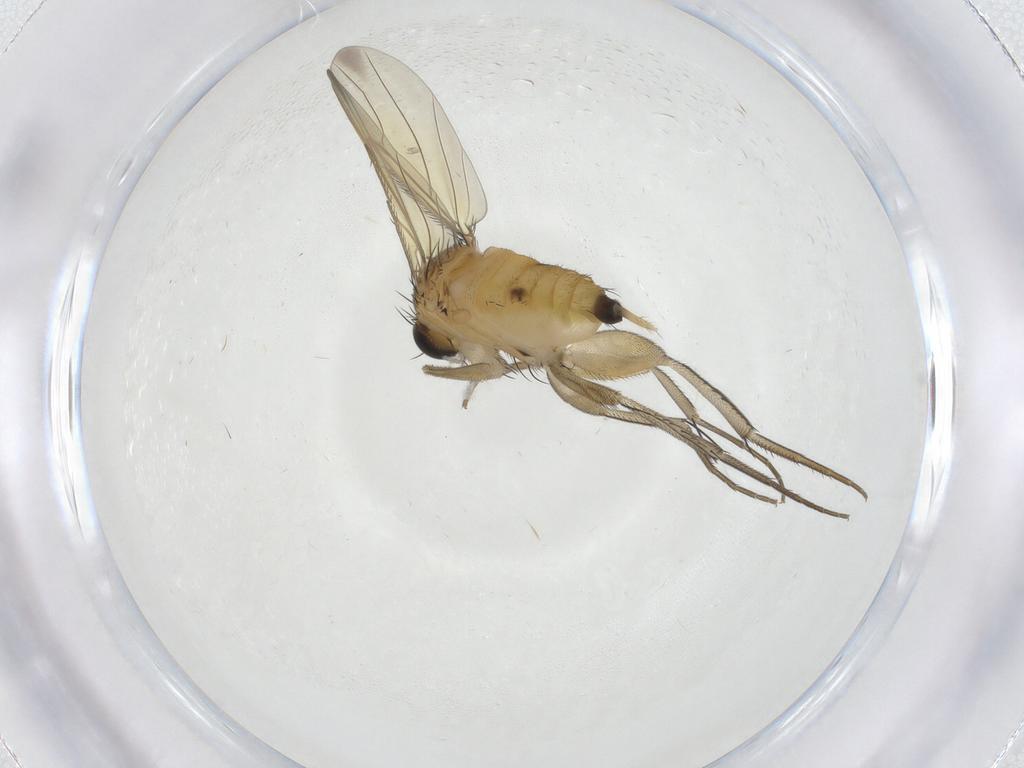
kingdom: Animalia
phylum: Arthropoda
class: Insecta
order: Diptera
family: Phoridae
